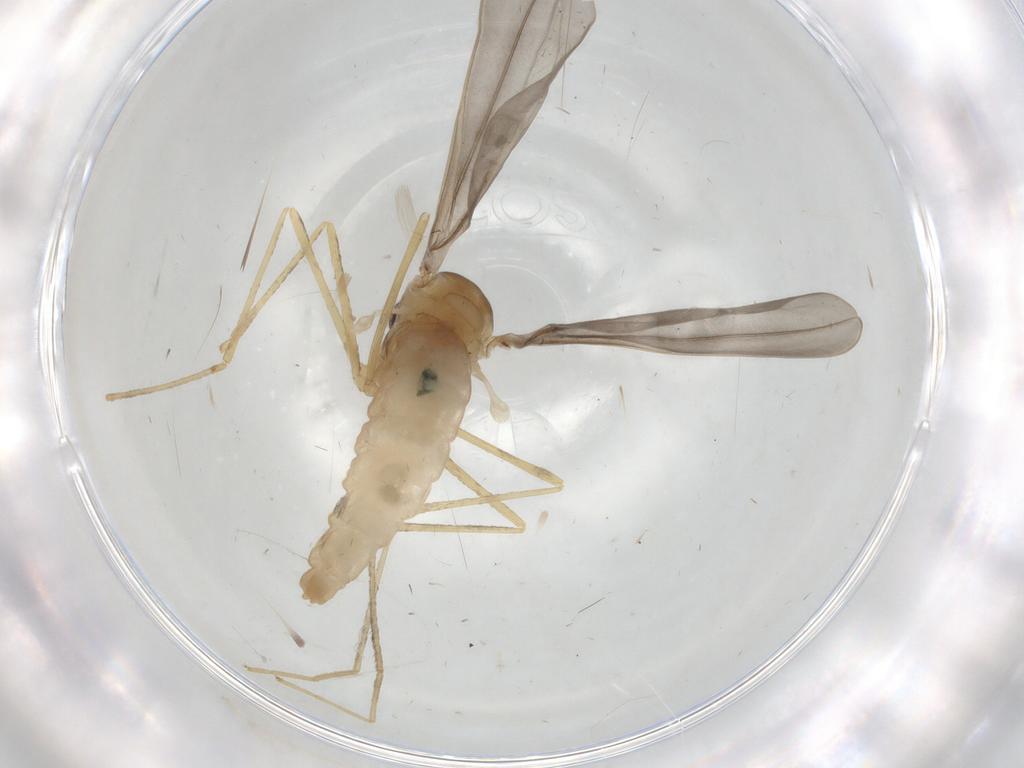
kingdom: Animalia
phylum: Arthropoda
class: Insecta
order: Diptera
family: Cecidomyiidae
